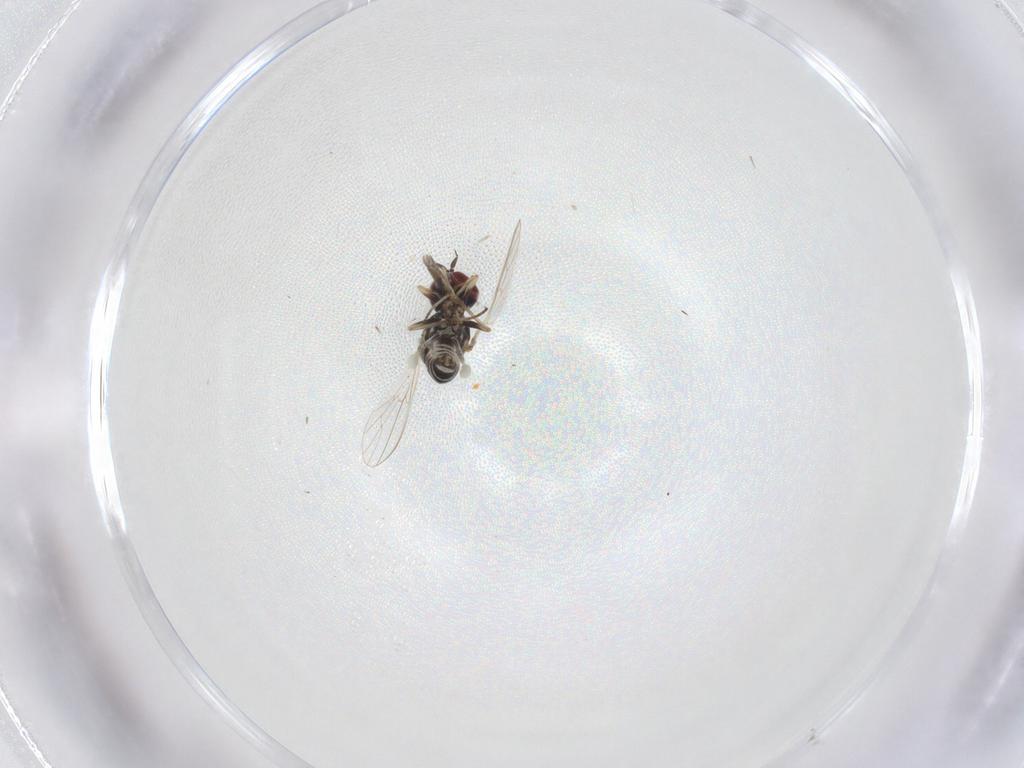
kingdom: Animalia
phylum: Arthropoda
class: Insecta
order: Diptera
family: Bombyliidae
